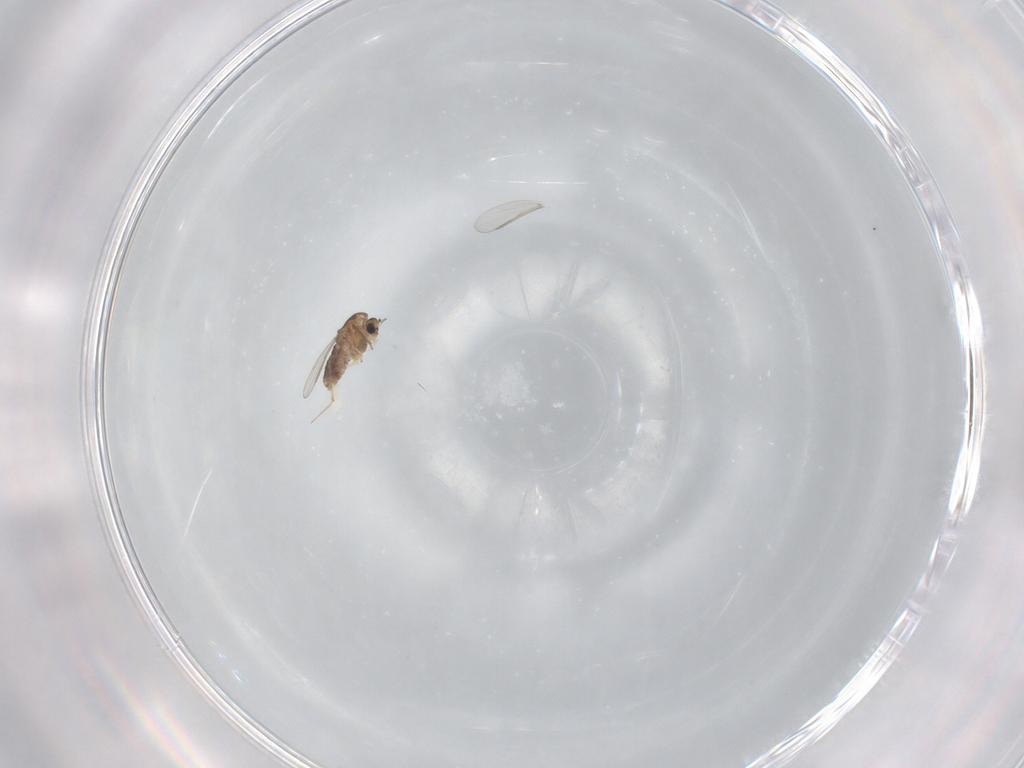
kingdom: Animalia
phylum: Arthropoda
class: Insecta
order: Diptera
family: Chironomidae
